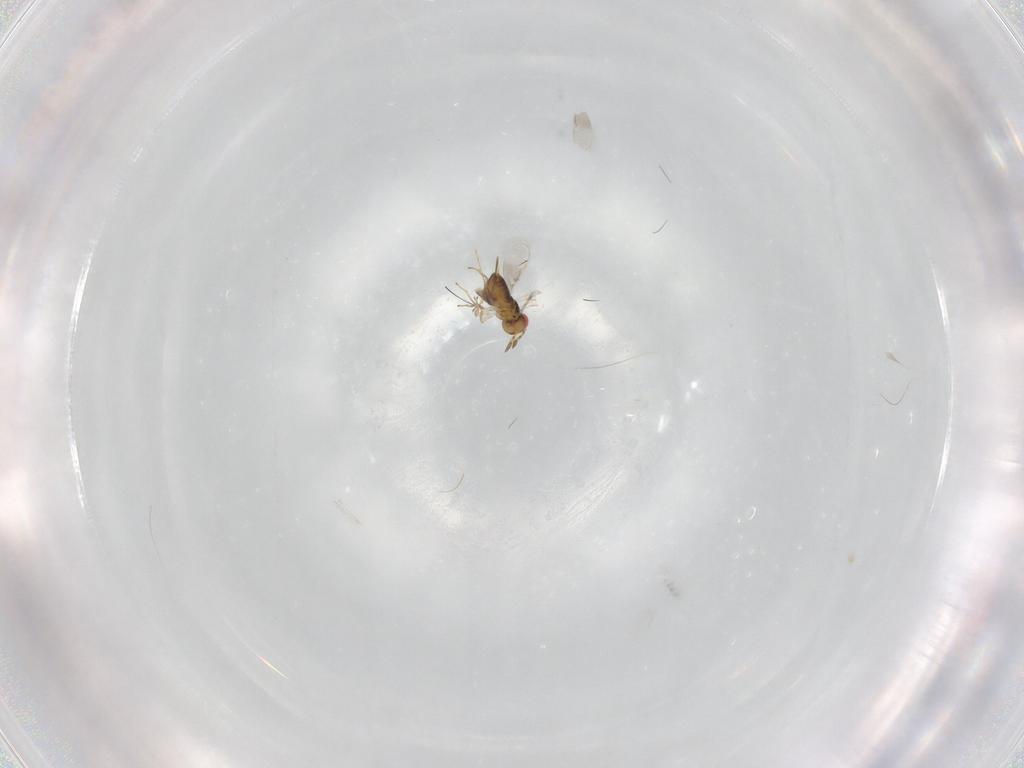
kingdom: Animalia
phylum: Arthropoda
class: Insecta
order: Hymenoptera
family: Azotidae
